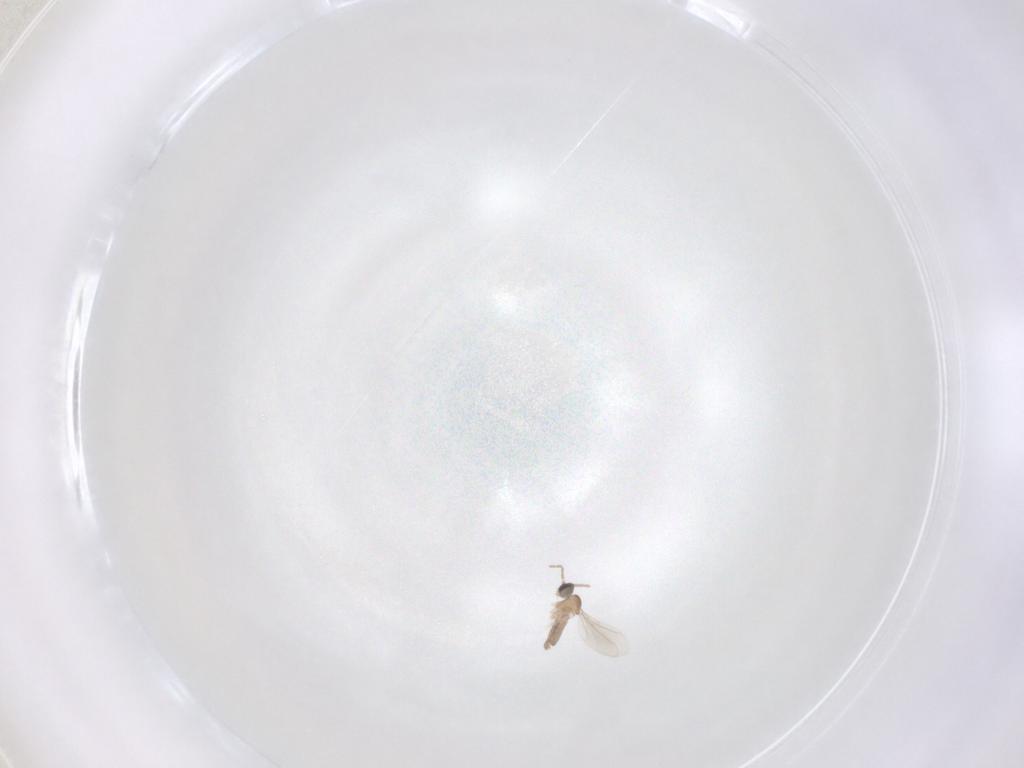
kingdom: Animalia
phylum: Arthropoda
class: Insecta
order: Diptera
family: Cecidomyiidae
